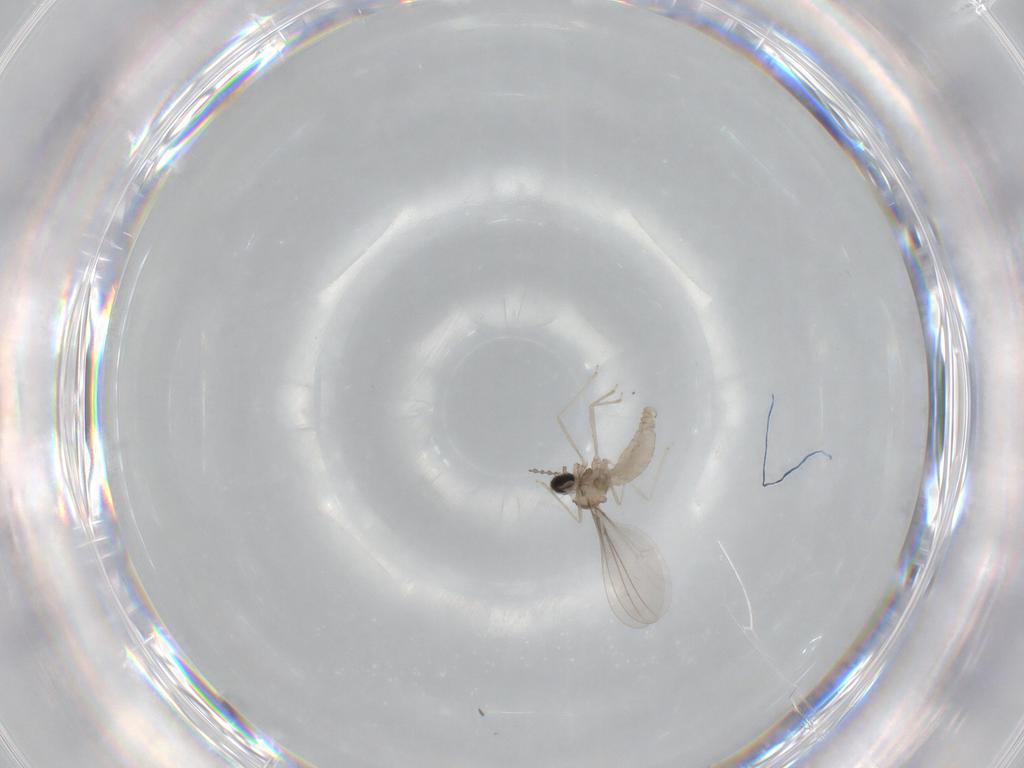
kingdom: Animalia
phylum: Arthropoda
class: Insecta
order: Diptera
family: Cecidomyiidae
